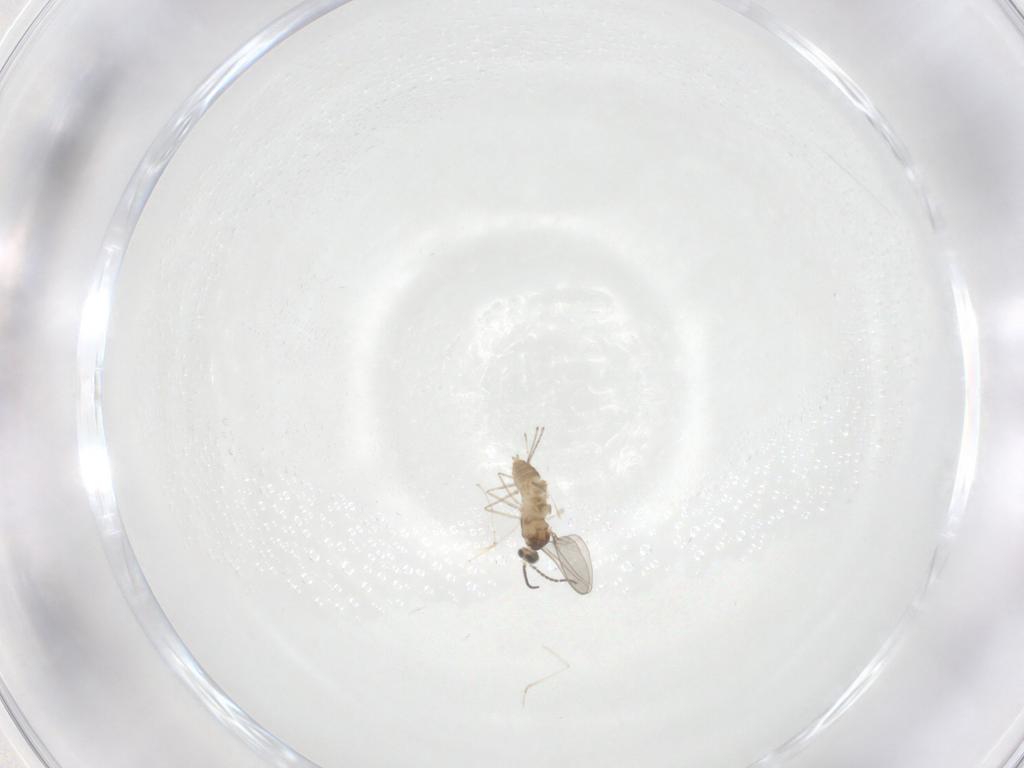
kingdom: Animalia
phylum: Arthropoda
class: Insecta
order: Diptera
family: Cecidomyiidae
